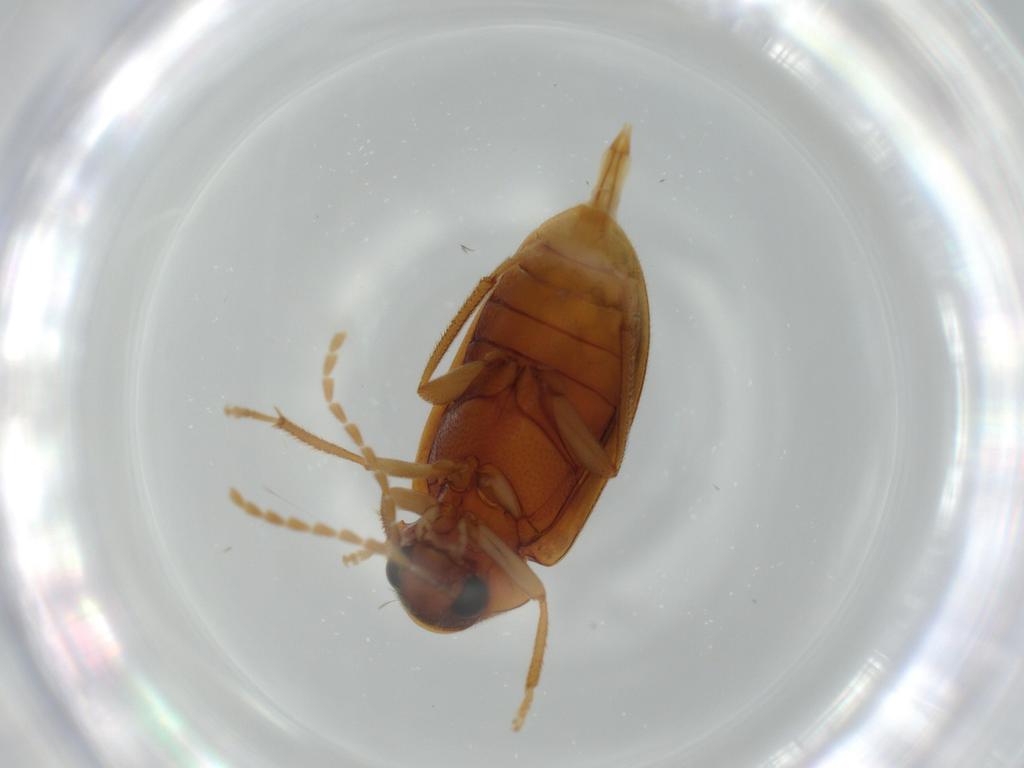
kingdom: Animalia
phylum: Arthropoda
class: Insecta
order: Coleoptera
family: Ptilodactylidae
